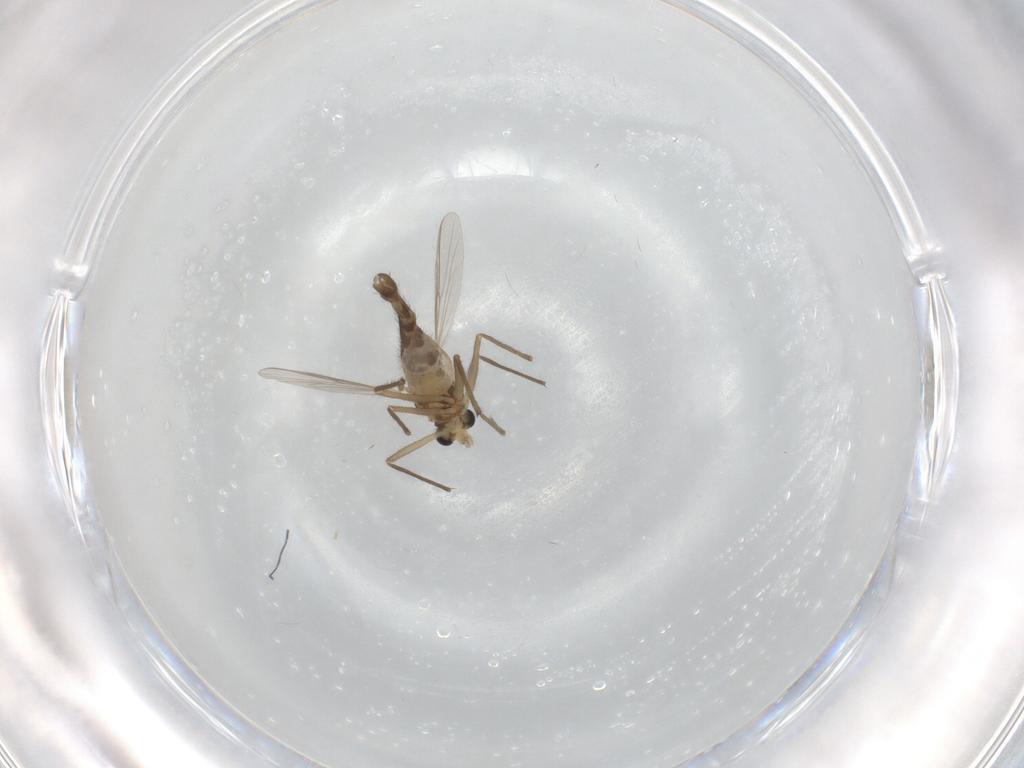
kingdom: Animalia
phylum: Arthropoda
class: Insecta
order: Diptera
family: Chironomidae
